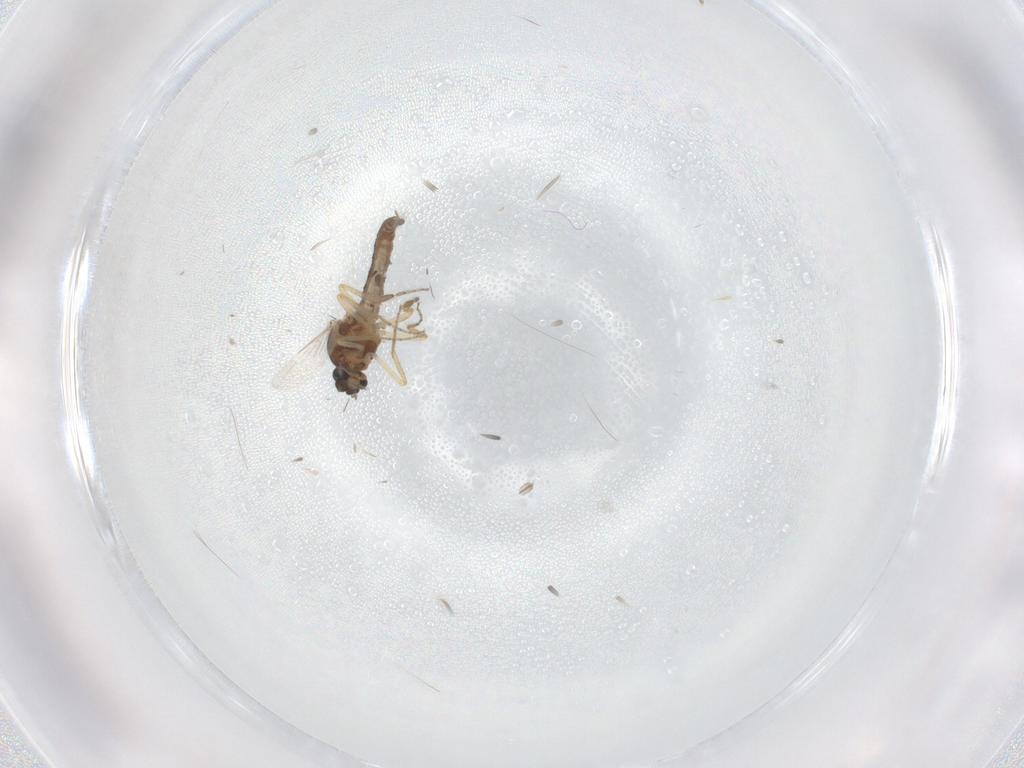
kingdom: Animalia
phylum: Arthropoda
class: Insecta
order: Diptera
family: Ceratopogonidae
